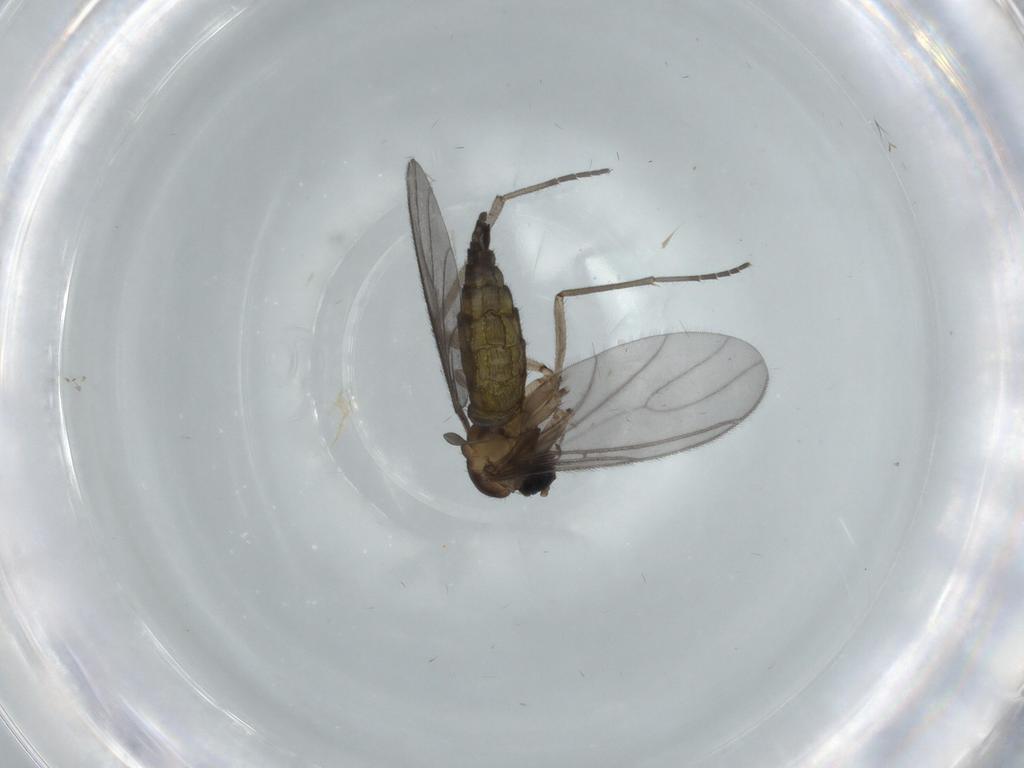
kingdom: Animalia
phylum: Arthropoda
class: Insecta
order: Diptera
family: Sciaridae
